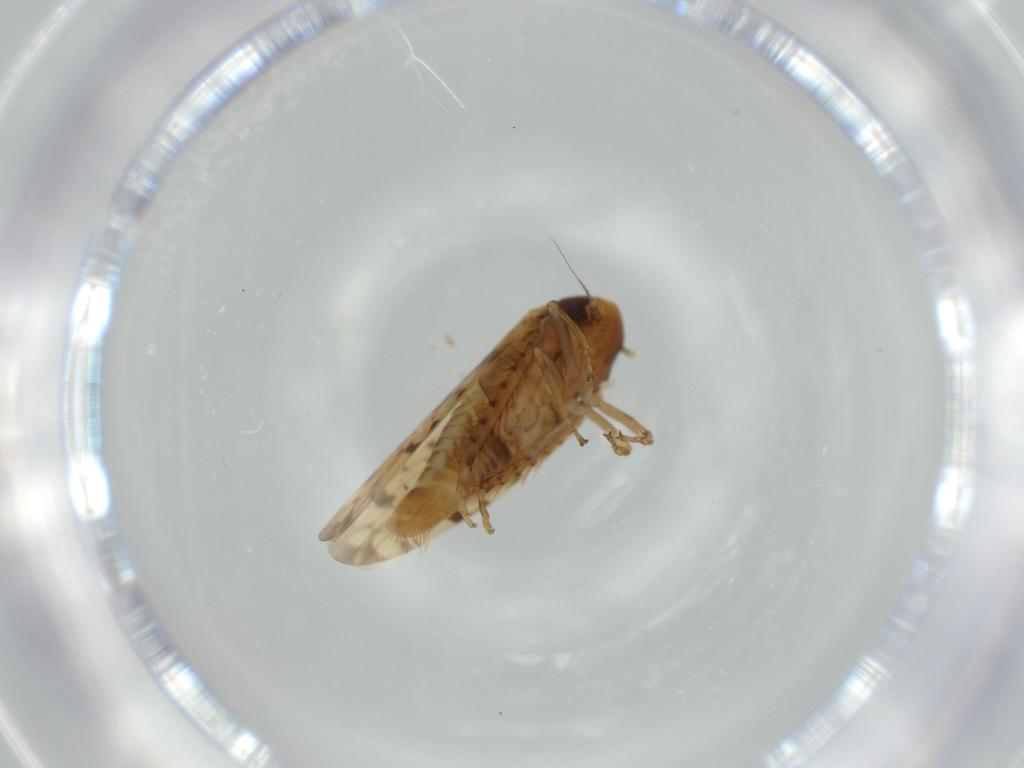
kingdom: Animalia
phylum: Arthropoda
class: Insecta
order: Hemiptera
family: Cicadellidae
